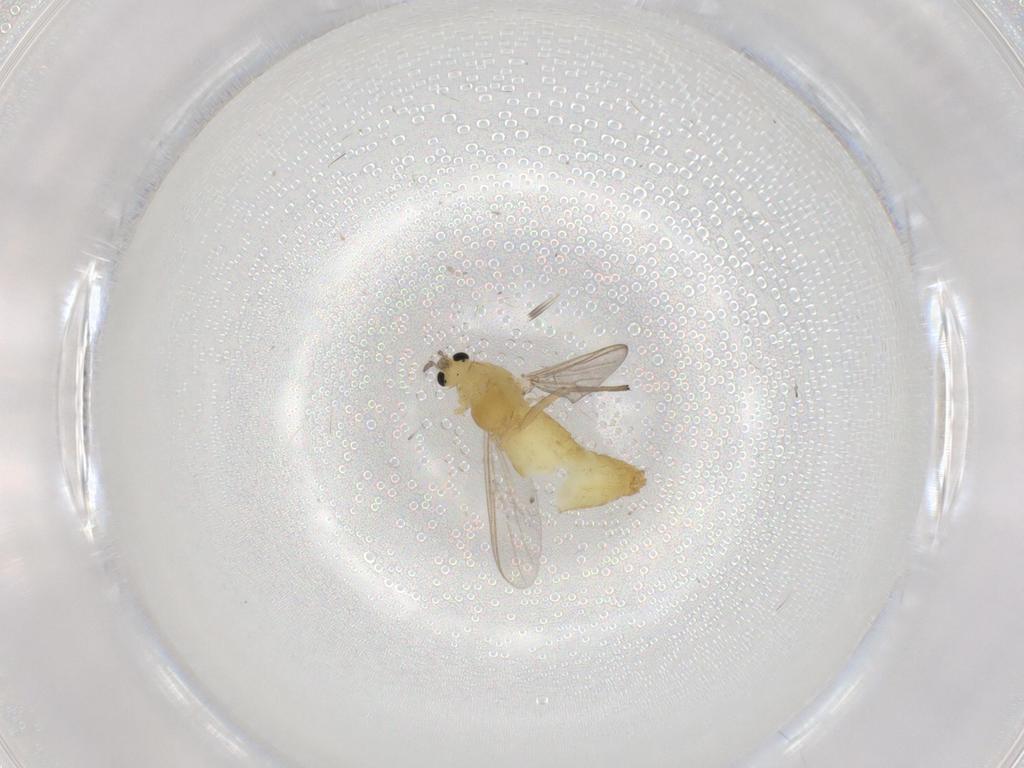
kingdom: Animalia
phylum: Arthropoda
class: Insecta
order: Diptera
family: Chironomidae
